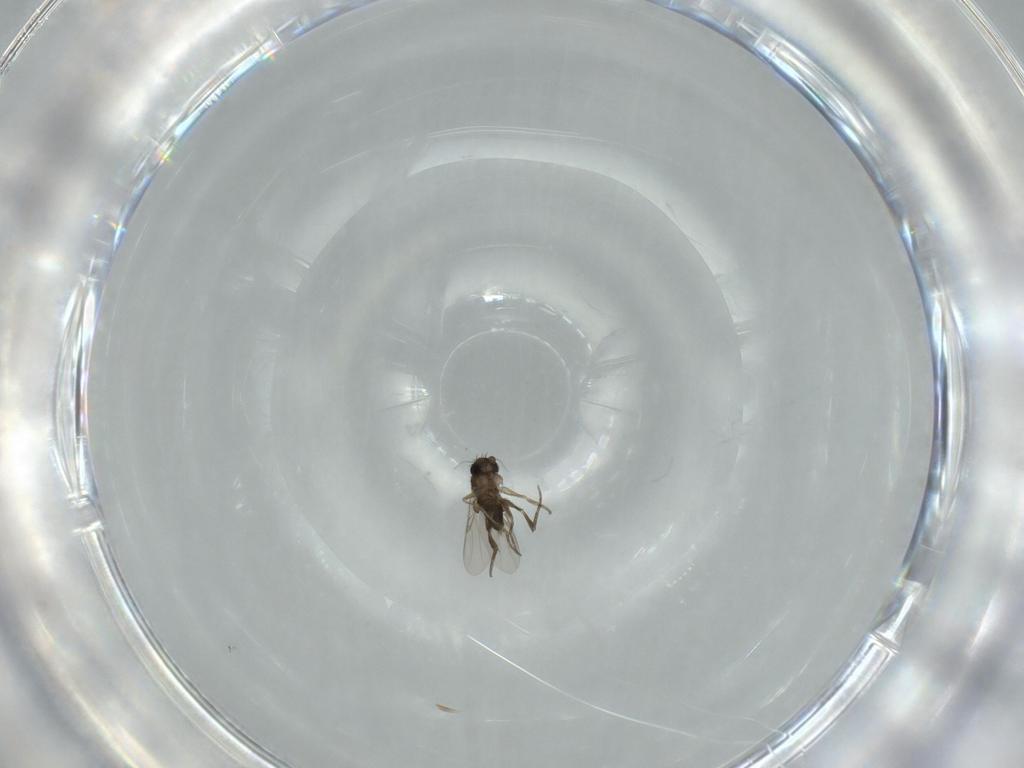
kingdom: Animalia
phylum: Arthropoda
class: Insecta
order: Diptera
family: Phoridae
